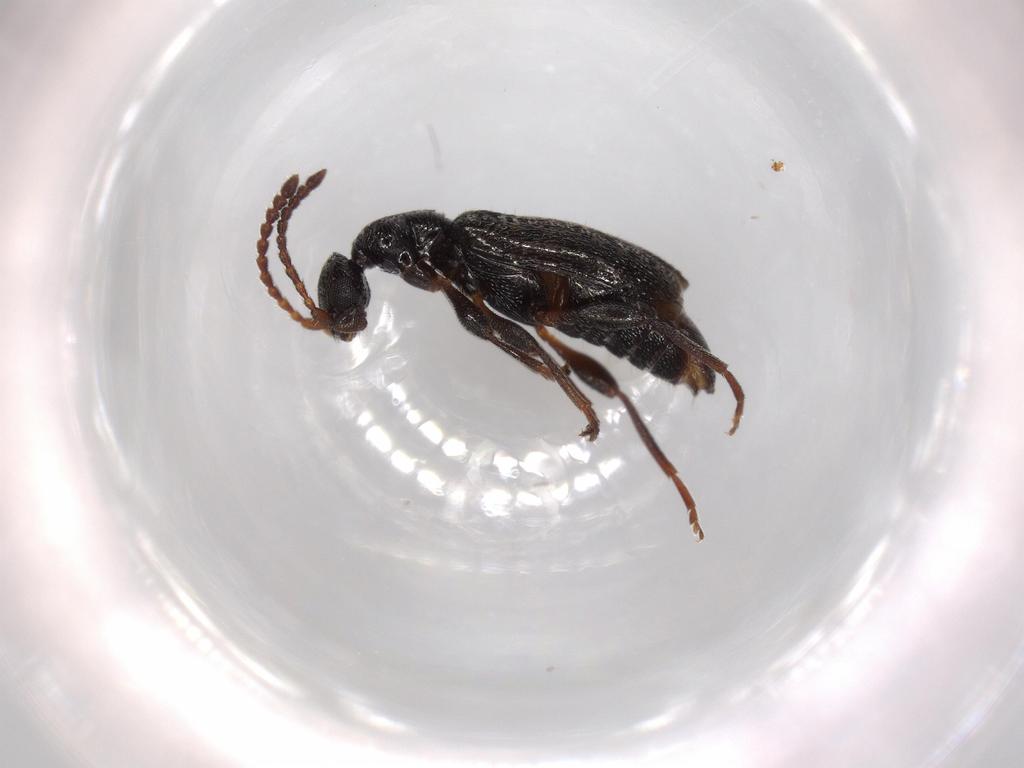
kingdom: Animalia
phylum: Arthropoda
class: Insecta
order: Coleoptera
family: Anthicidae
